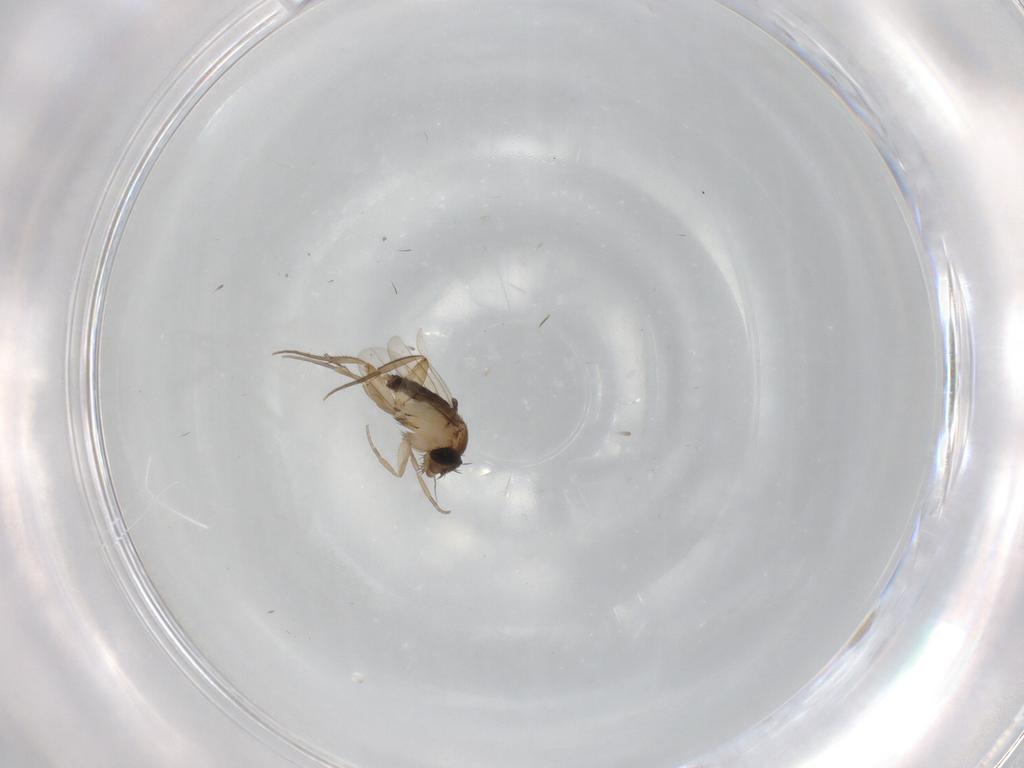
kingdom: Animalia
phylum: Arthropoda
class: Insecta
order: Diptera
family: Phoridae
